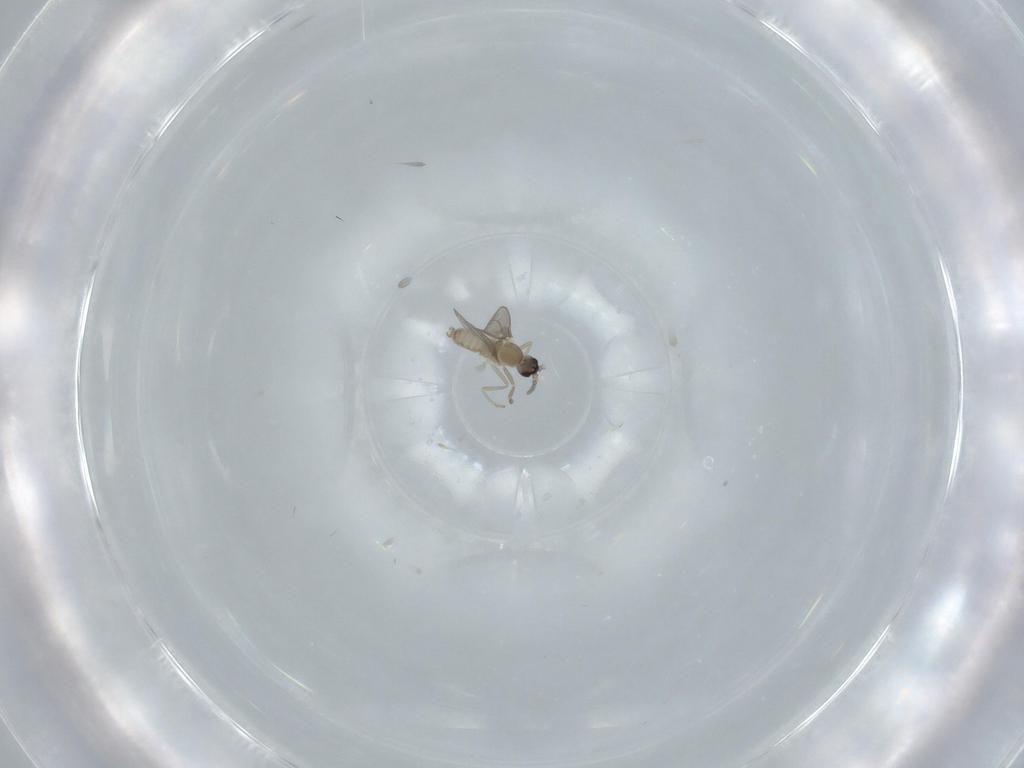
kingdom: Animalia
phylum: Arthropoda
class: Insecta
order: Diptera
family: Cecidomyiidae
